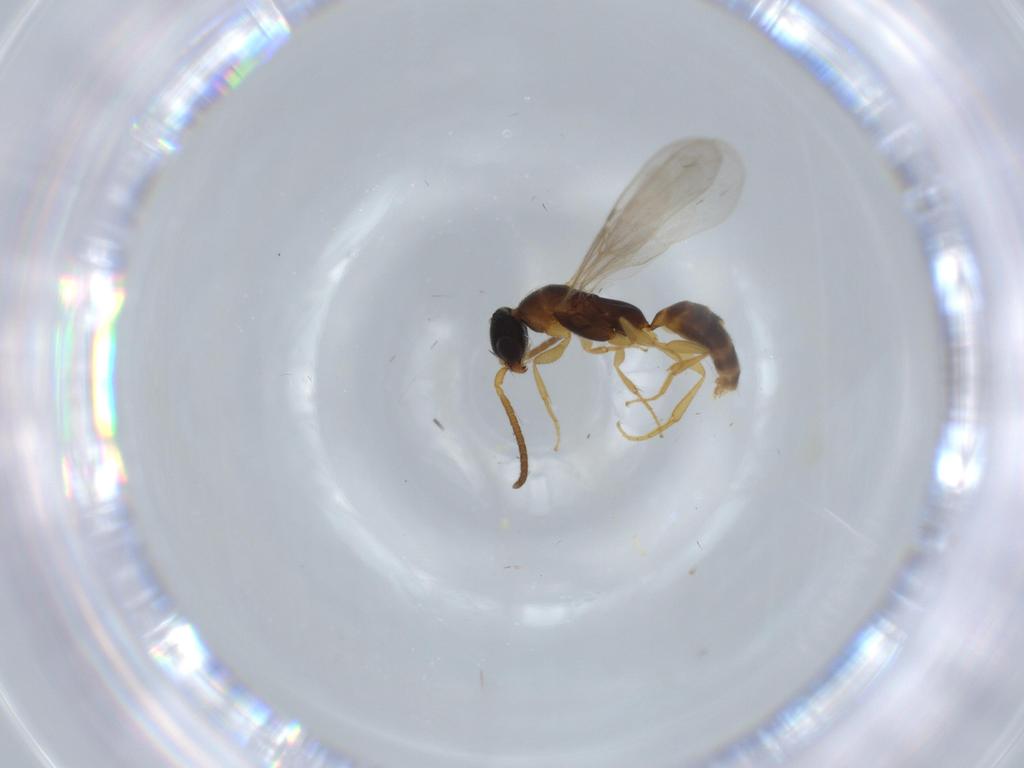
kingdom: Animalia
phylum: Arthropoda
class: Insecta
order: Hymenoptera
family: Bethylidae
